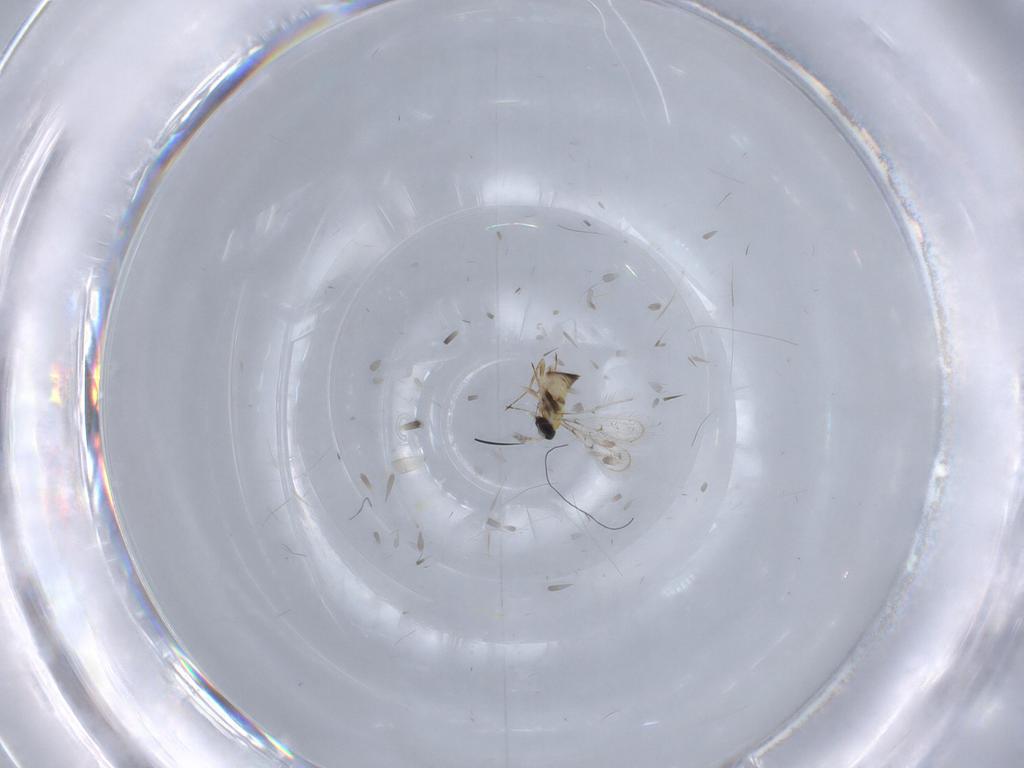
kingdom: Animalia
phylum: Arthropoda
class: Insecta
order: Hymenoptera
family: Trichogrammatidae
